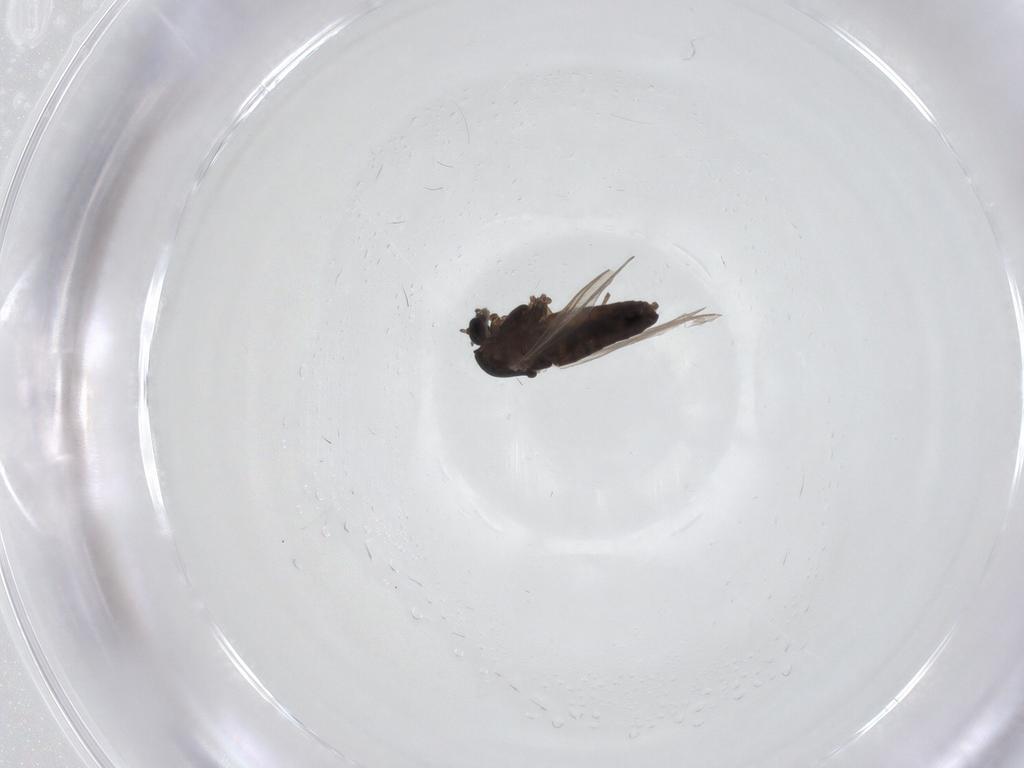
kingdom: Animalia
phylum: Arthropoda
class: Insecta
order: Diptera
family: Chironomidae
